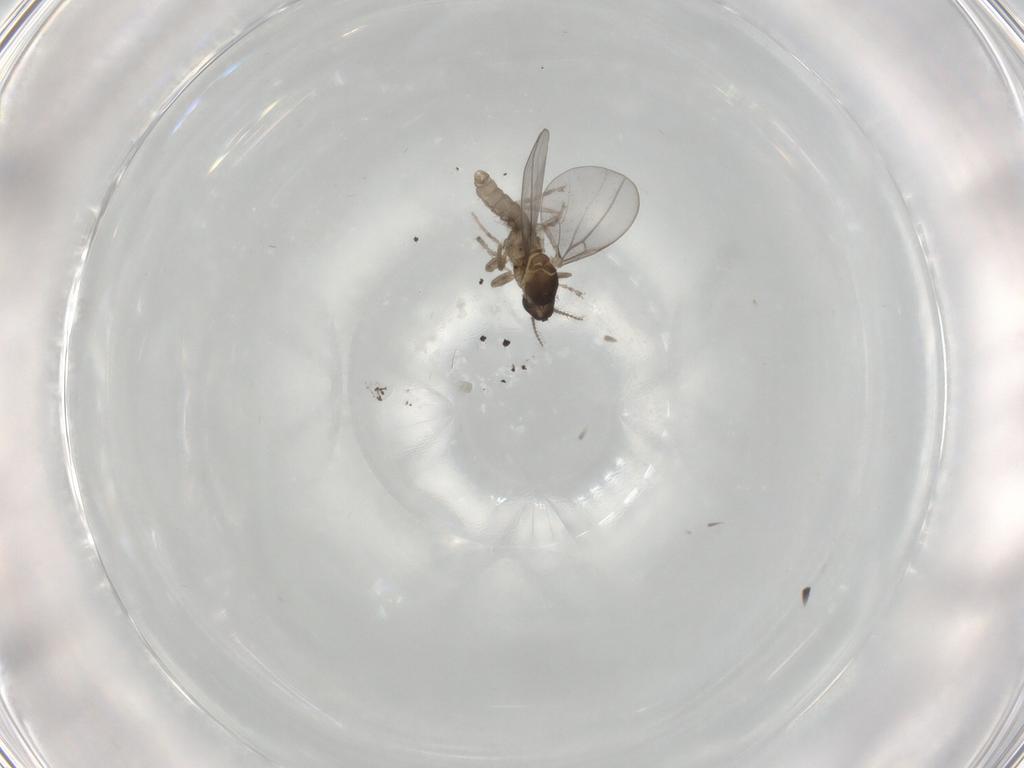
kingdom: Animalia
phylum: Arthropoda
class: Insecta
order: Diptera
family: Cecidomyiidae
